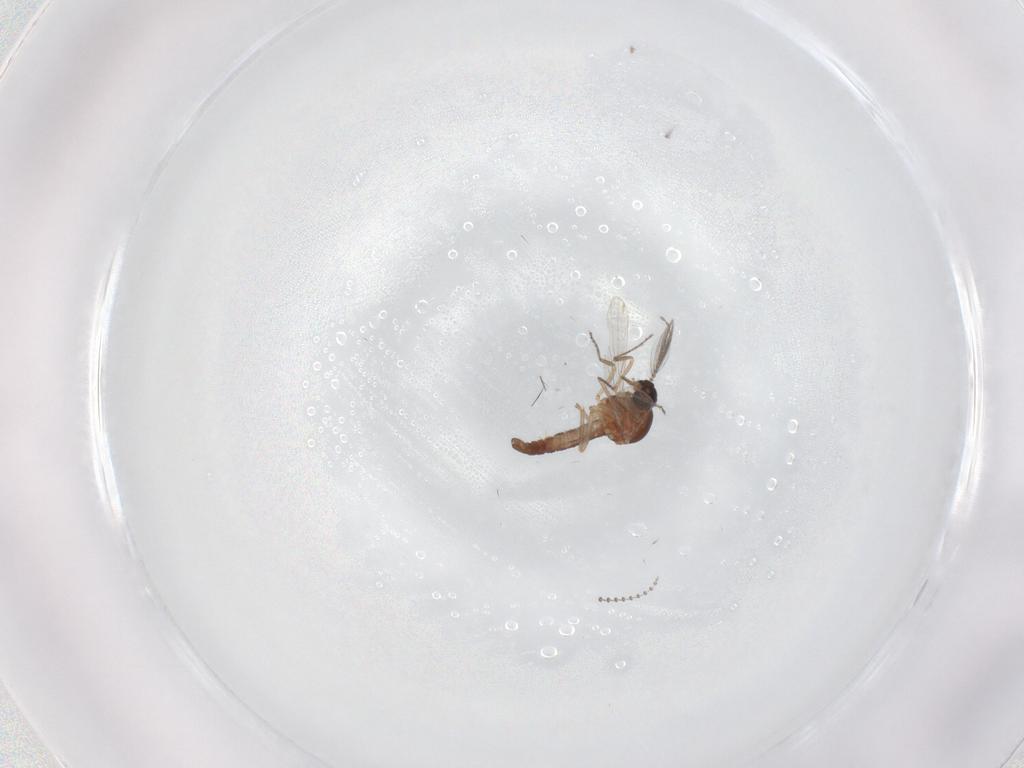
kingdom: Animalia
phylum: Arthropoda
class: Insecta
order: Diptera
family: Ceratopogonidae
